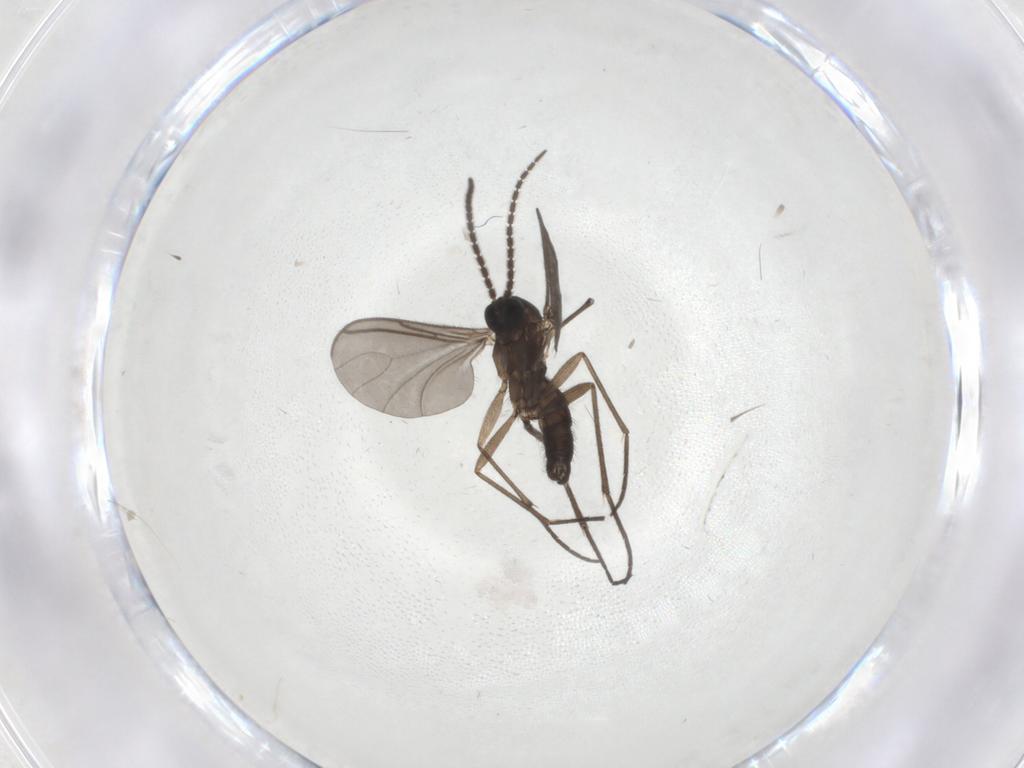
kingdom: Animalia
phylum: Arthropoda
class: Insecta
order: Diptera
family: Sciaridae
